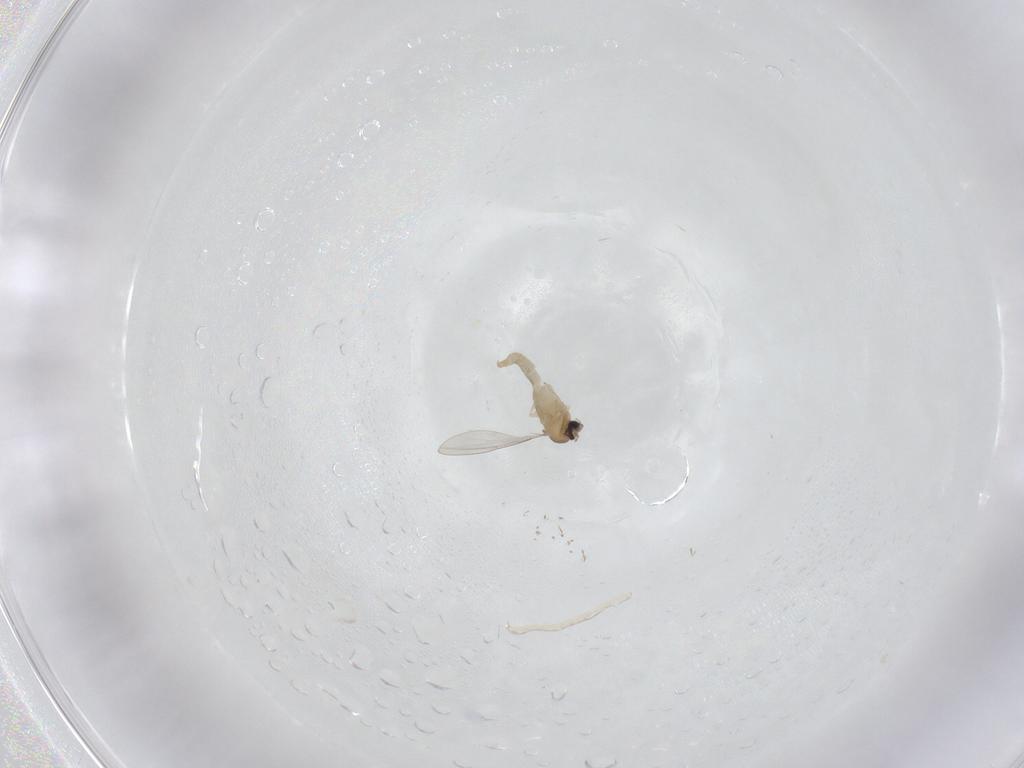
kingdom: Animalia
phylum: Arthropoda
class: Insecta
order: Diptera
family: Cecidomyiidae
